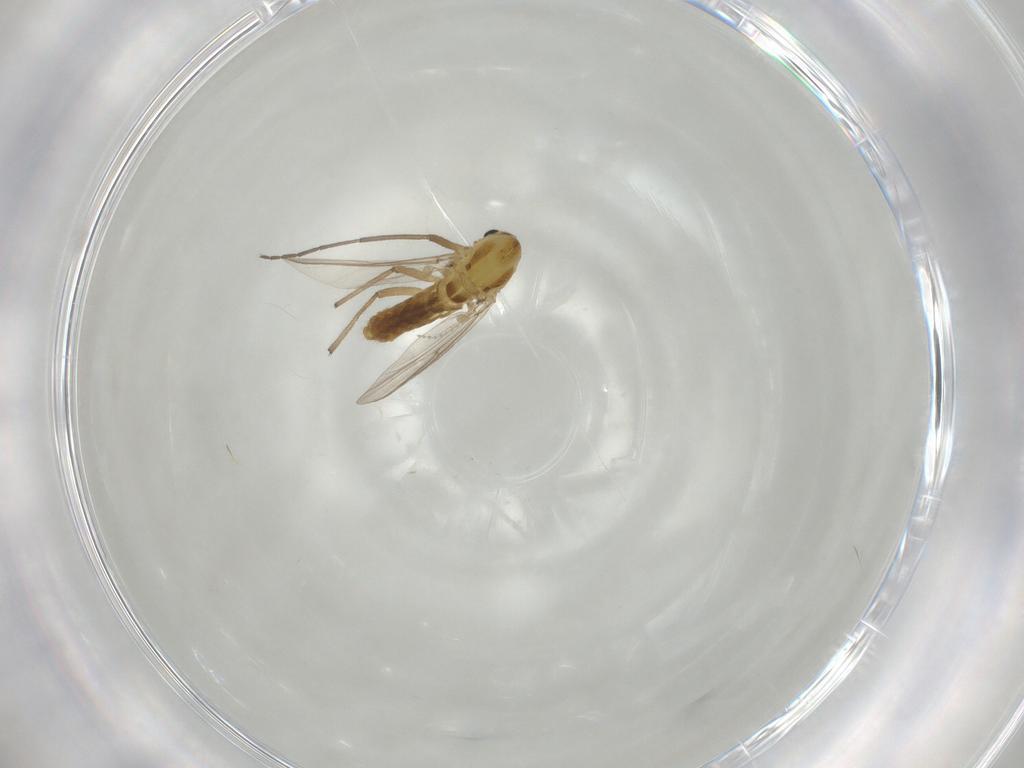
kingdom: Animalia
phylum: Arthropoda
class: Insecta
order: Diptera
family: Chironomidae
